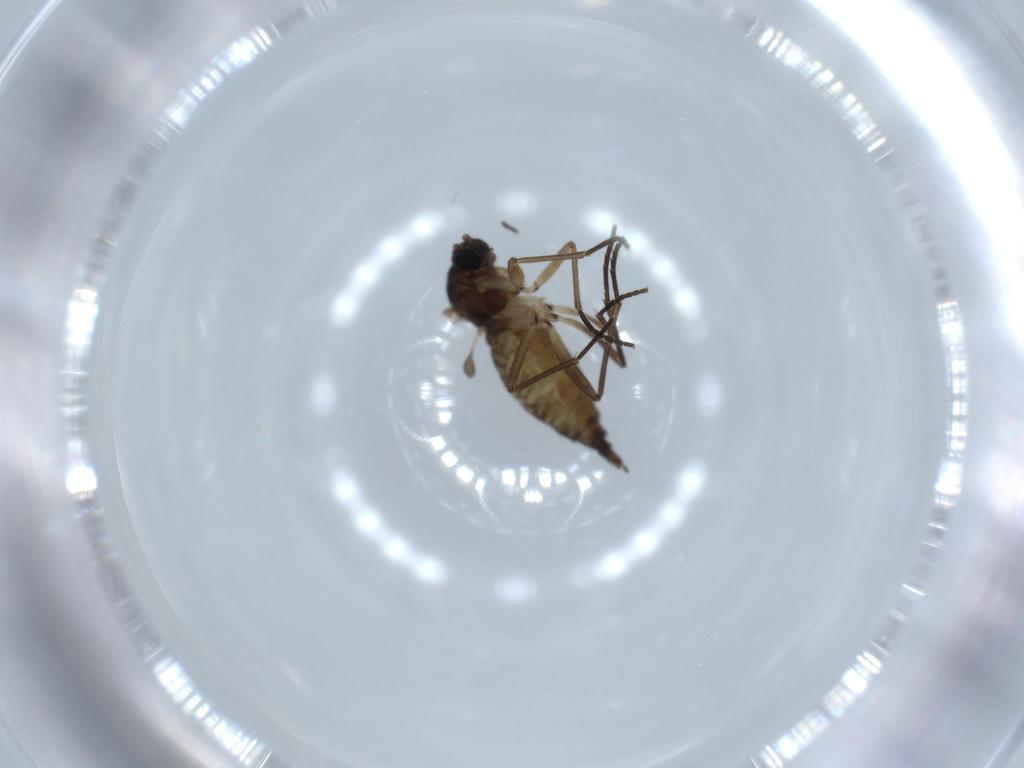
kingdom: Animalia
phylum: Arthropoda
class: Insecta
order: Diptera
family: Sciaridae
